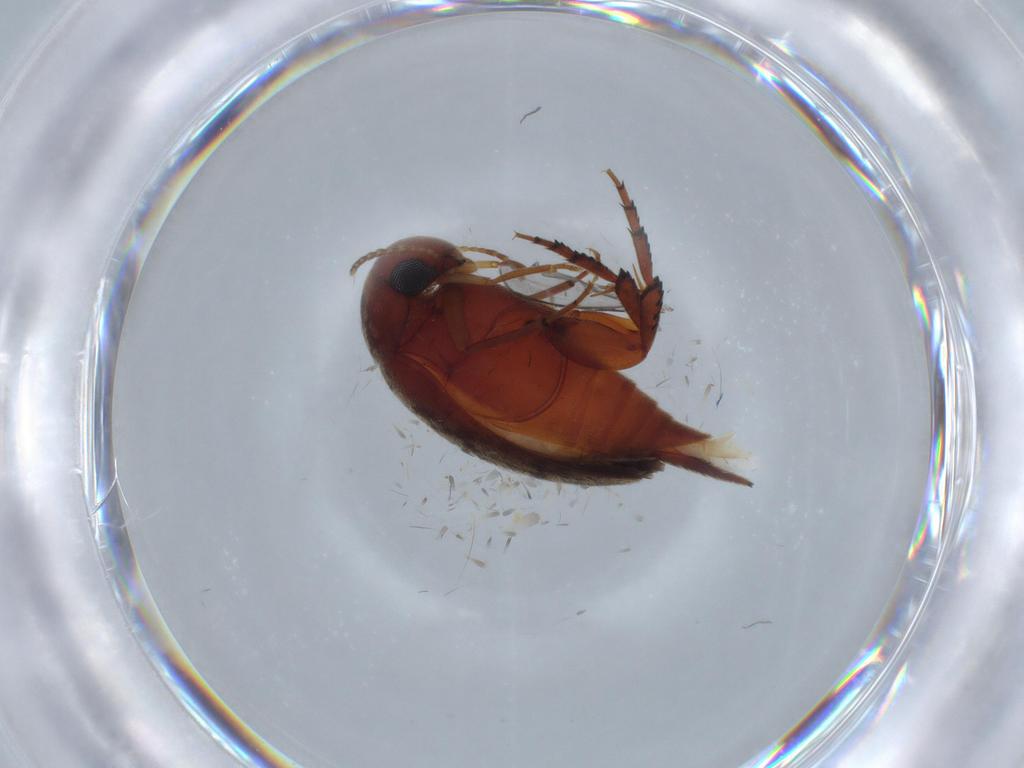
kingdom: Animalia
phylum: Arthropoda
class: Insecta
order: Coleoptera
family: Mordellidae
